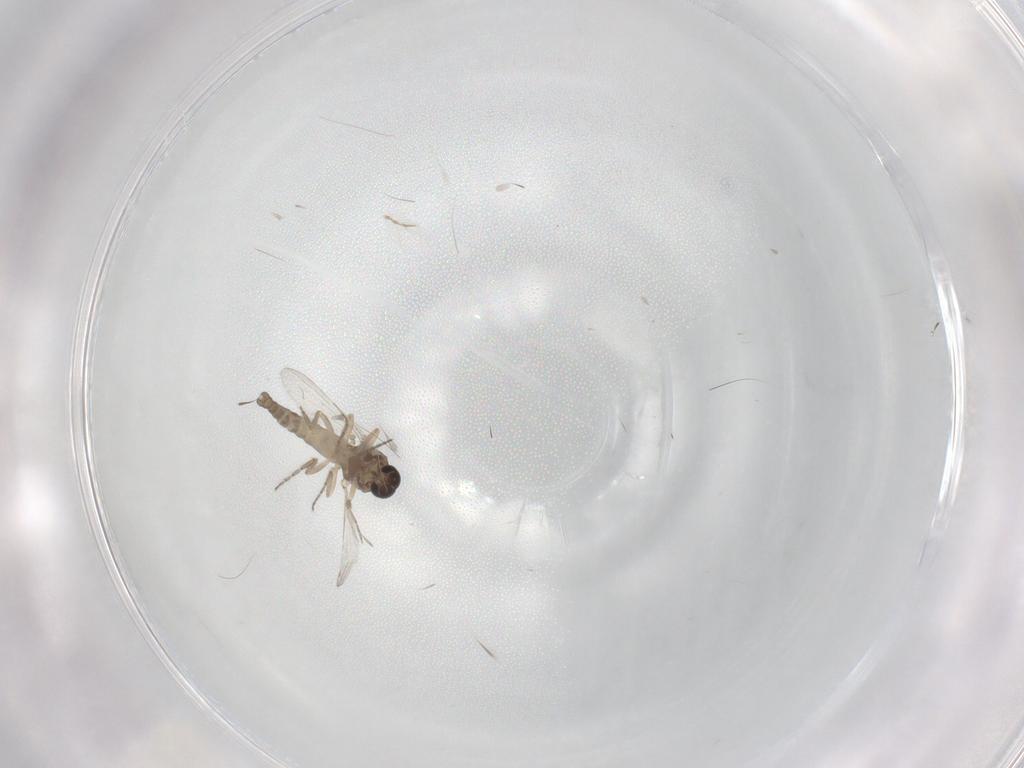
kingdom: Animalia
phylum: Arthropoda
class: Insecta
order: Diptera
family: Ceratopogonidae
